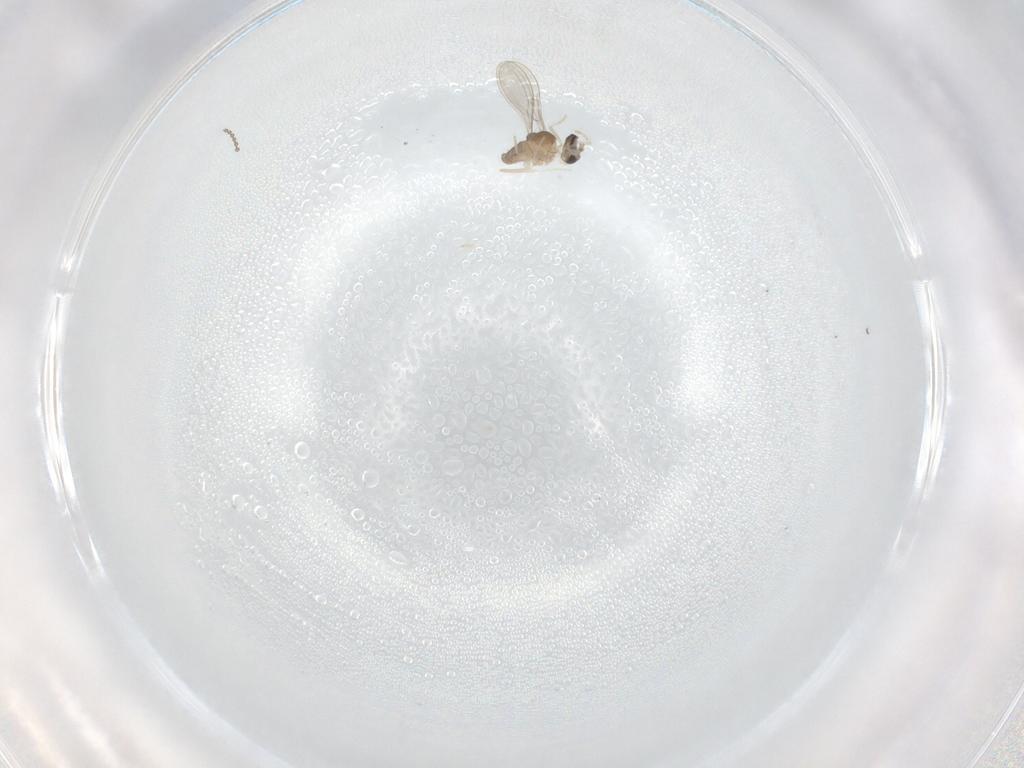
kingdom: Animalia
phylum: Arthropoda
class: Insecta
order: Diptera
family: Cecidomyiidae
